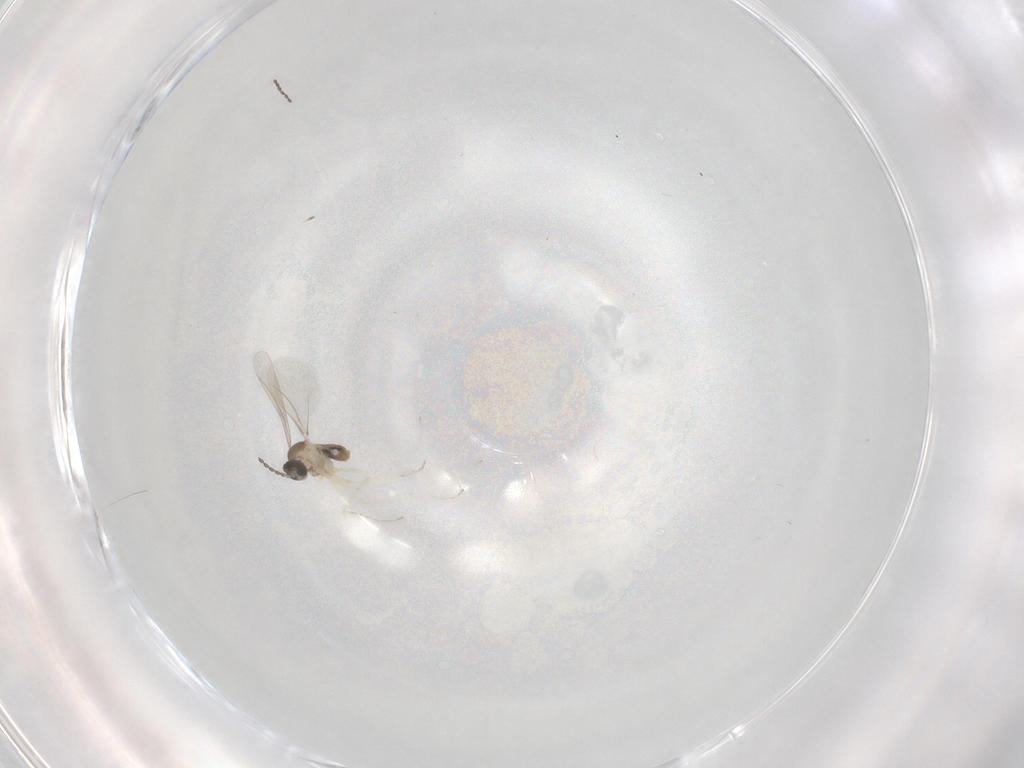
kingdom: Animalia
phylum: Arthropoda
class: Insecta
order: Diptera
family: Cecidomyiidae
